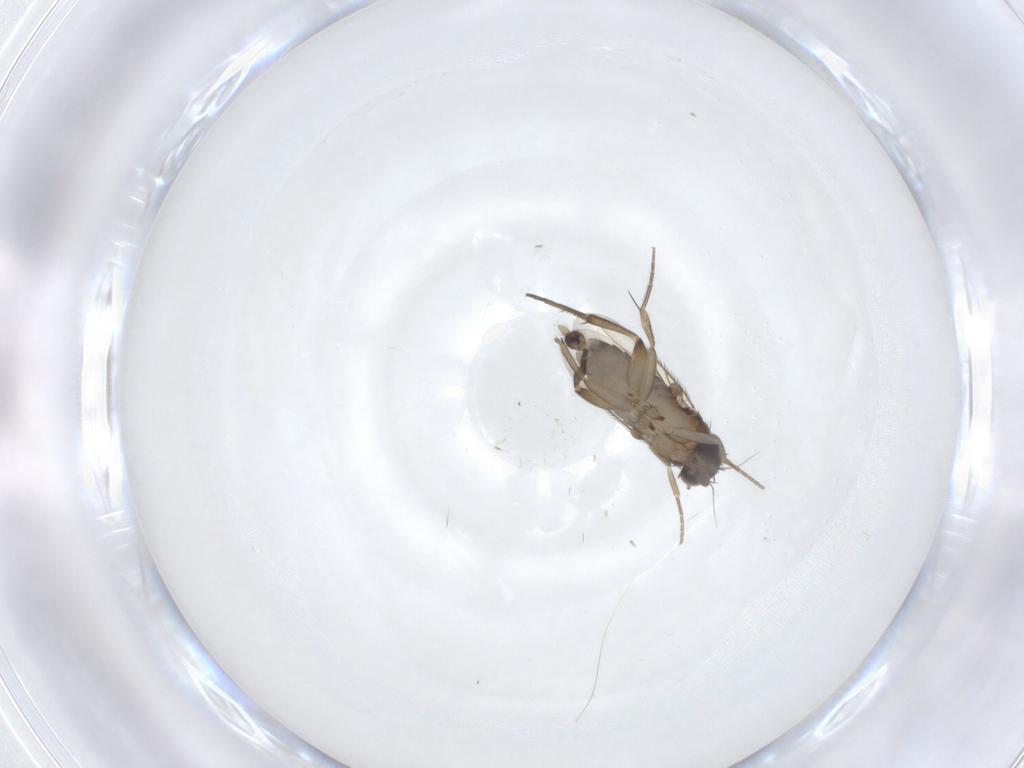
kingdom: Animalia
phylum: Arthropoda
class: Insecta
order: Diptera
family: Phoridae
